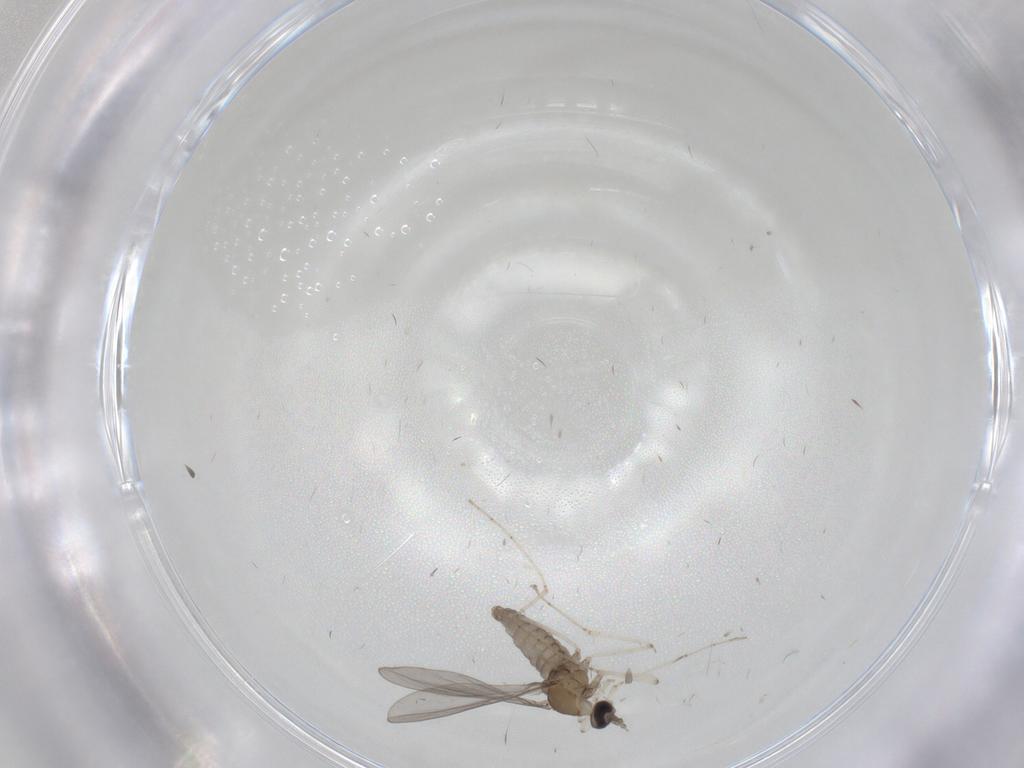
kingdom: Animalia
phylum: Arthropoda
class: Insecta
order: Diptera
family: Cecidomyiidae
